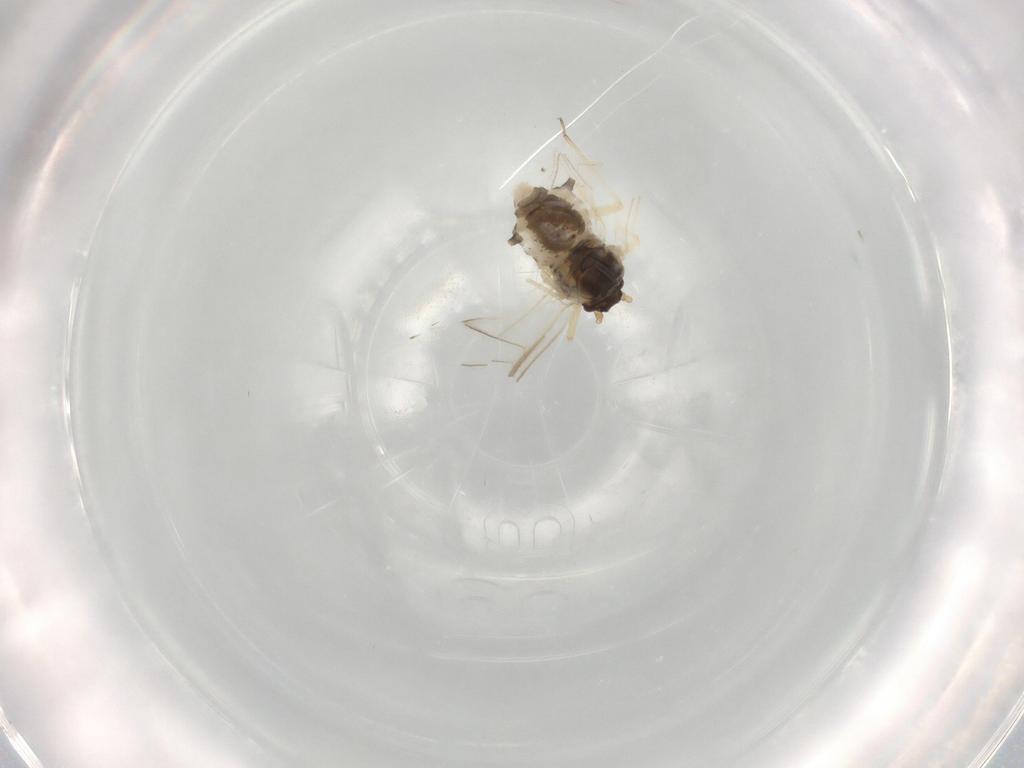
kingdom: Animalia
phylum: Arthropoda
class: Insecta
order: Hemiptera
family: Aphididae
